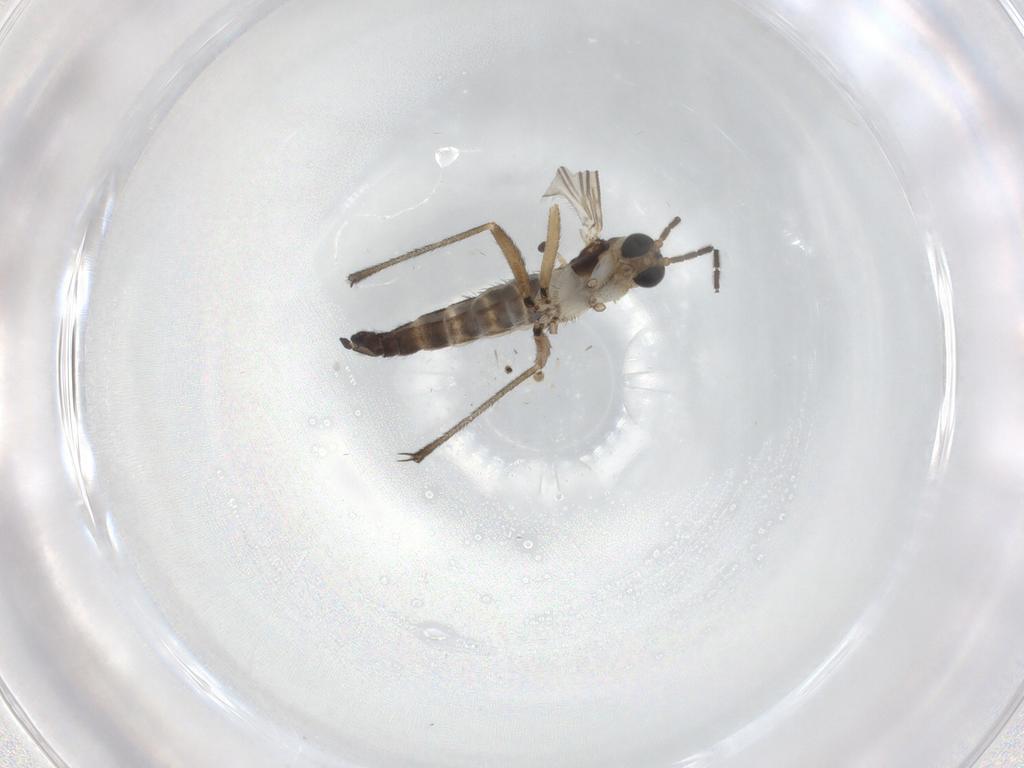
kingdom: Animalia
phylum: Arthropoda
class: Insecta
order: Diptera
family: Sciaridae
